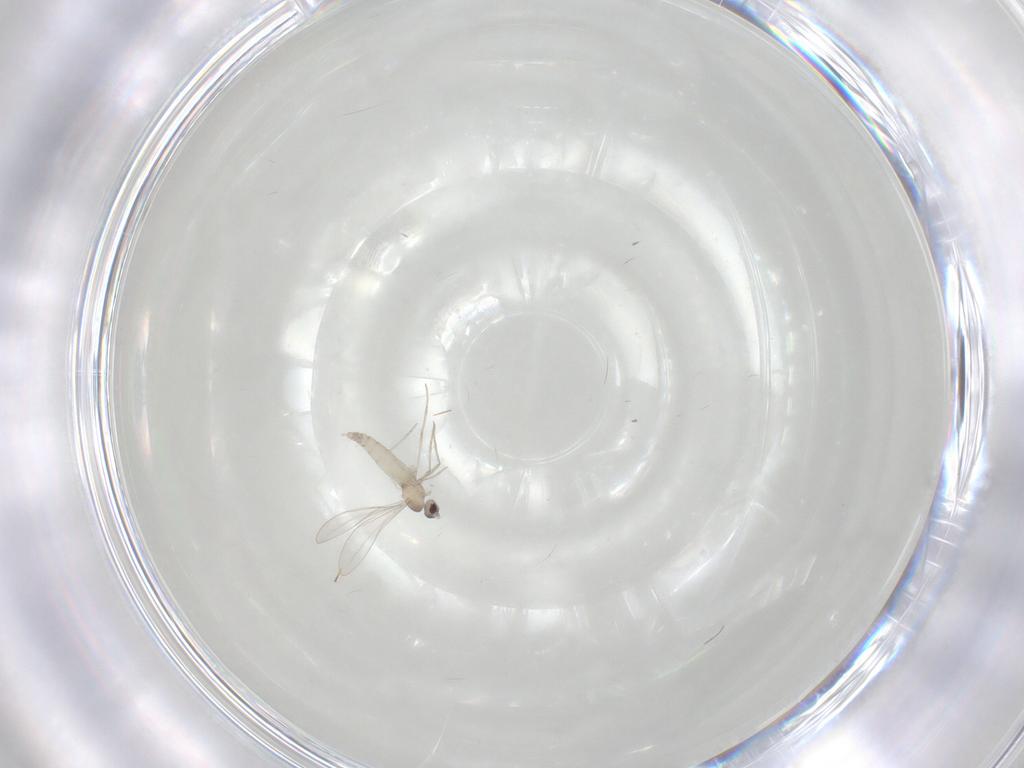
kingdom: Animalia
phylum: Arthropoda
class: Insecta
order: Diptera
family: Cecidomyiidae
